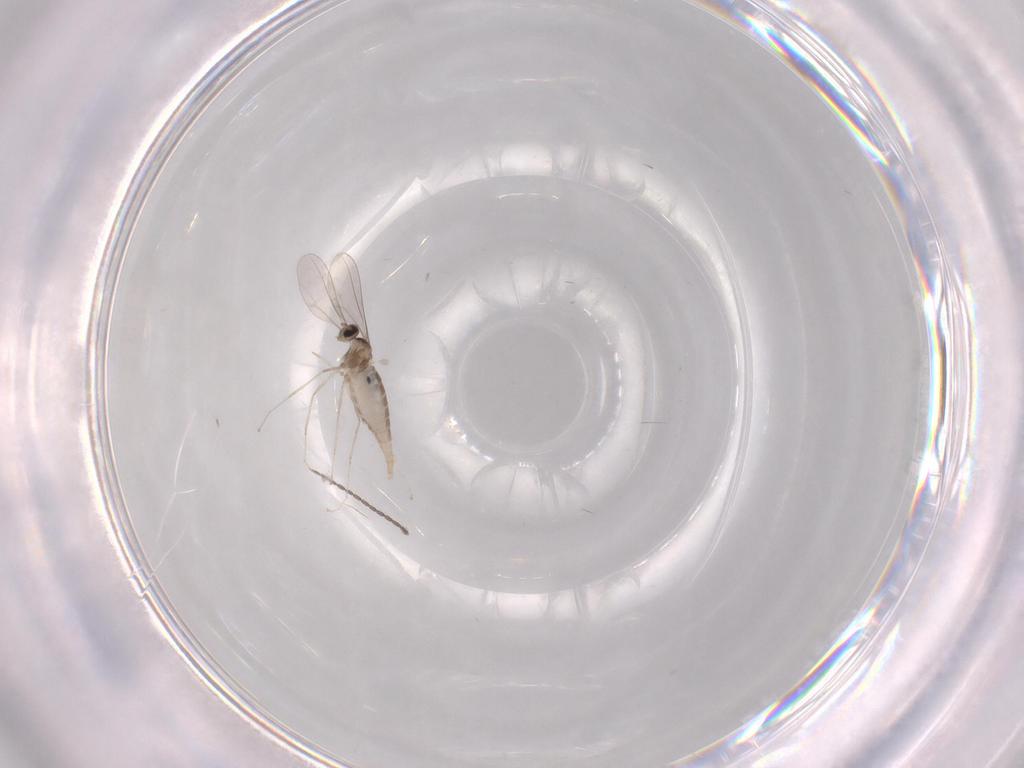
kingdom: Animalia
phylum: Arthropoda
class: Insecta
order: Diptera
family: Cecidomyiidae
